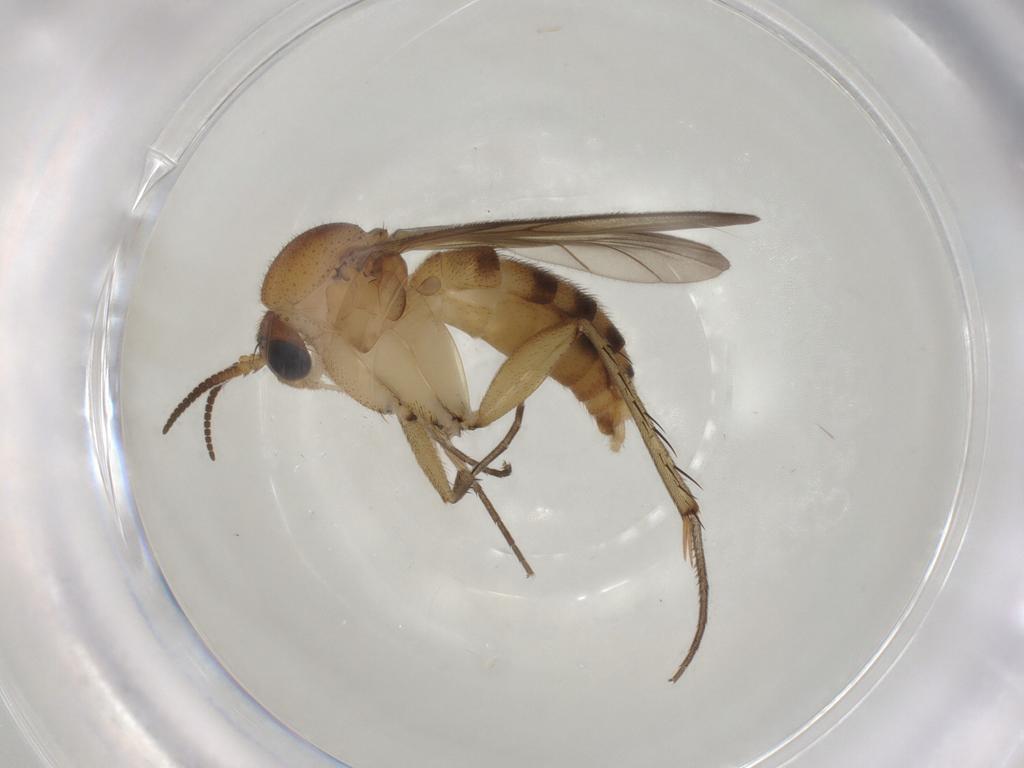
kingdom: Animalia
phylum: Arthropoda
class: Insecta
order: Diptera
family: Mycetophilidae
